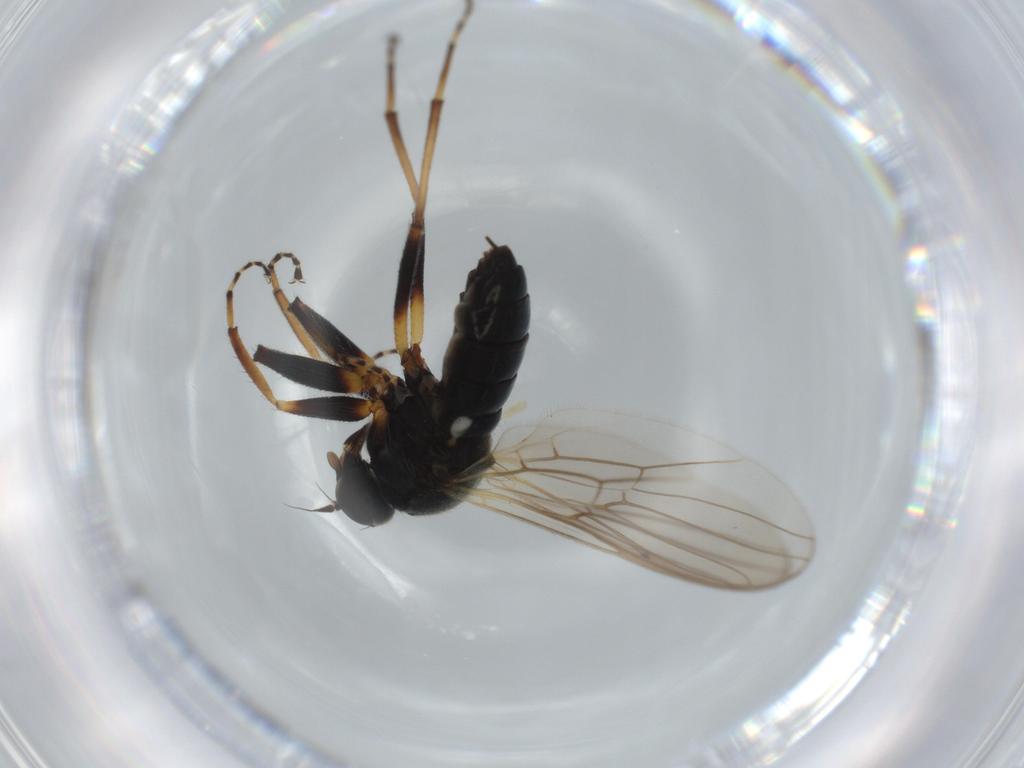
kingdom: Animalia
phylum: Arthropoda
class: Insecta
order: Diptera
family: Hybotidae
